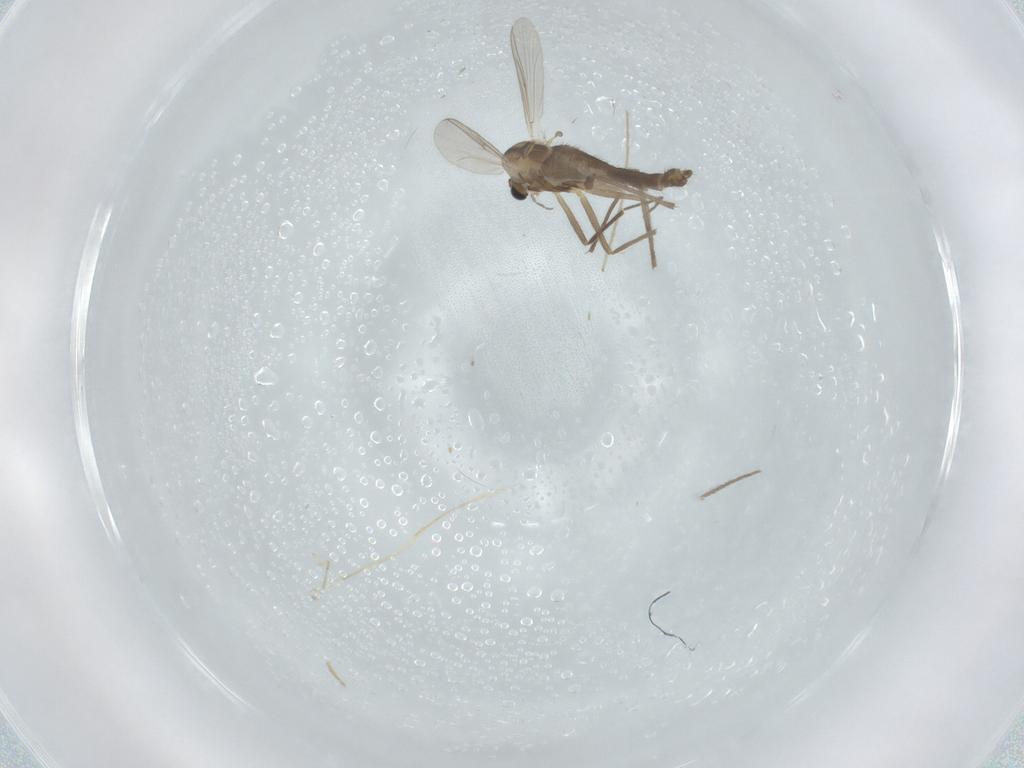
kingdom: Animalia
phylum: Arthropoda
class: Insecta
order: Diptera
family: Chironomidae
